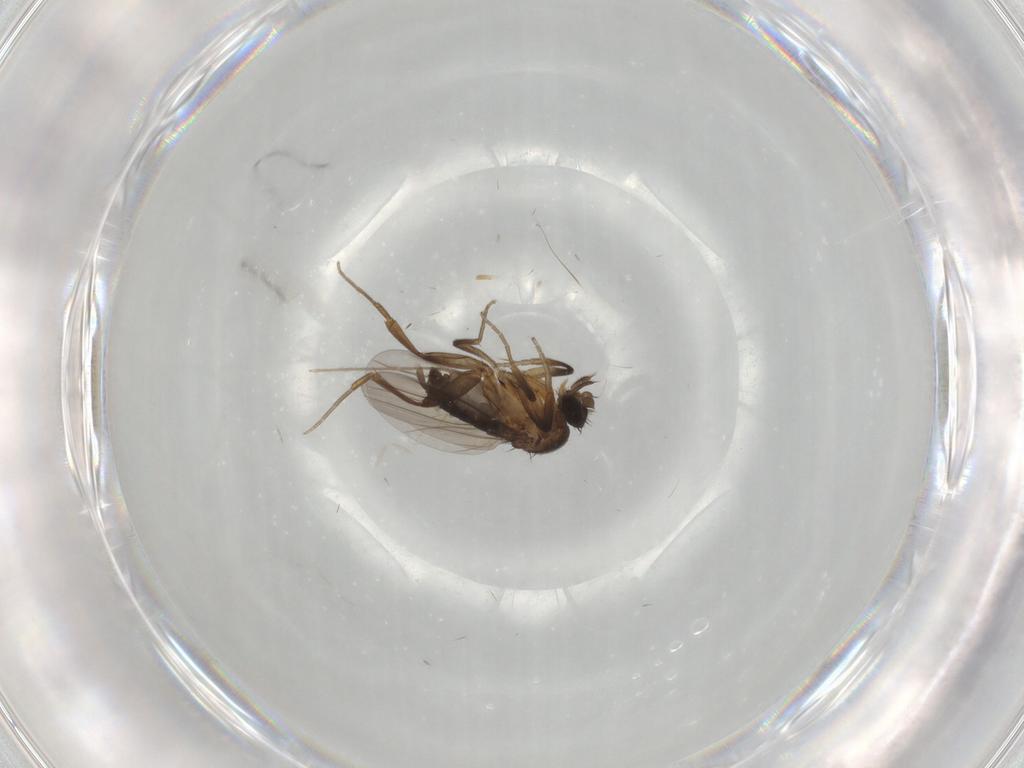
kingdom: Animalia
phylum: Arthropoda
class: Insecta
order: Diptera
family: Phoridae
